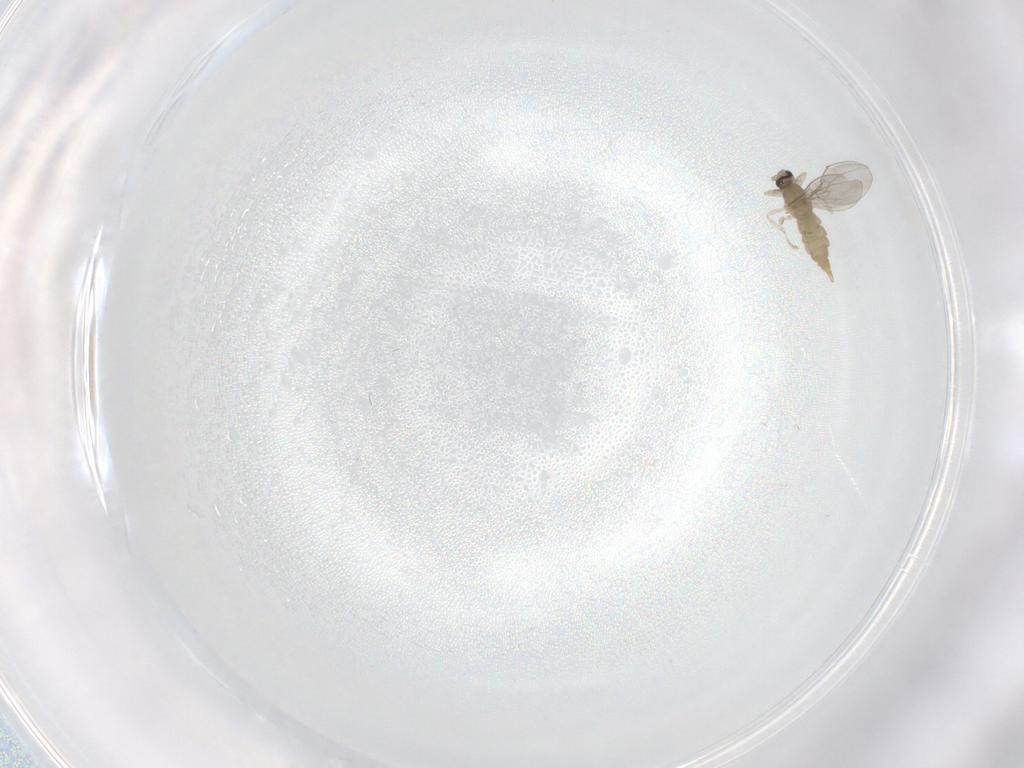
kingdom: Animalia
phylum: Arthropoda
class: Insecta
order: Diptera
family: Cecidomyiidae
